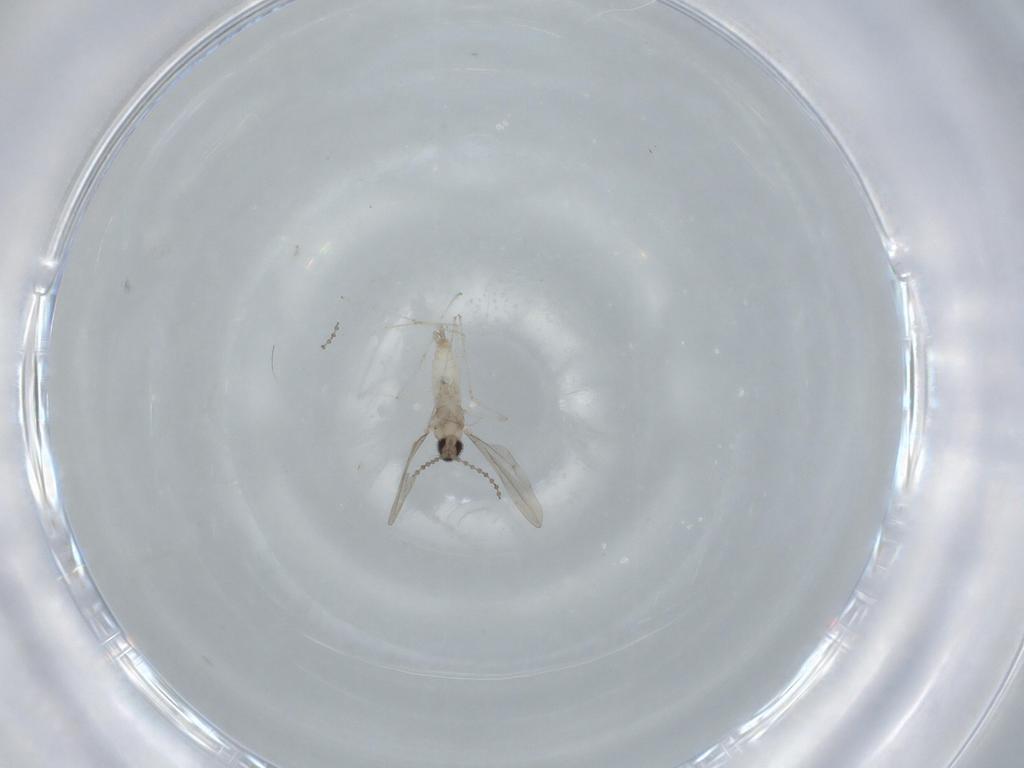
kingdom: Animalia
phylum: Arthropoda
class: Insecta
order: Diptera
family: Cecidomyiidae
